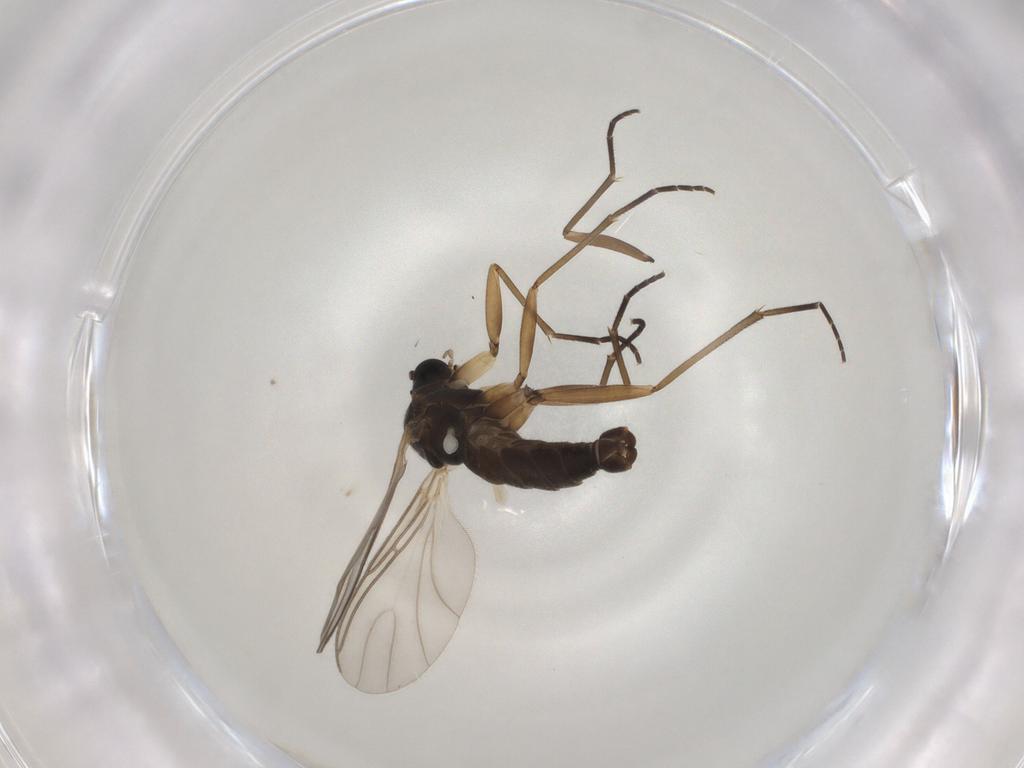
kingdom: Animalia
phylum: Arthropoda
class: Insecta
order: Diptera
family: Sciaridae
